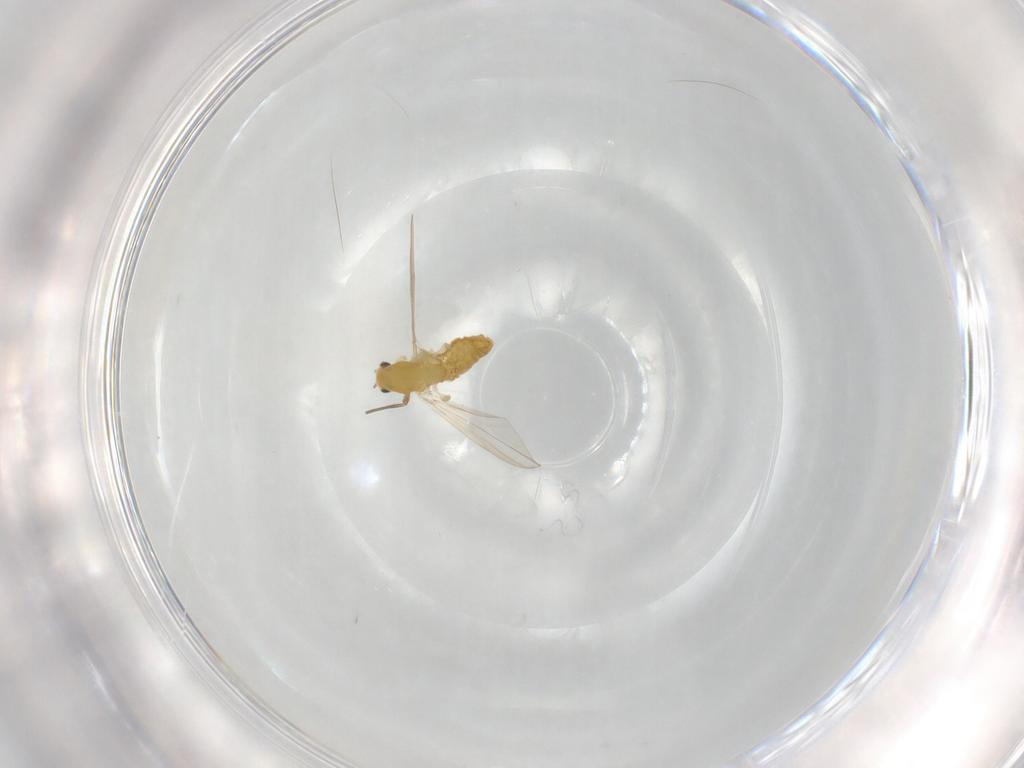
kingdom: Animalia
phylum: Arthropoda
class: Insecta
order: Diptera
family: Chironomidae
